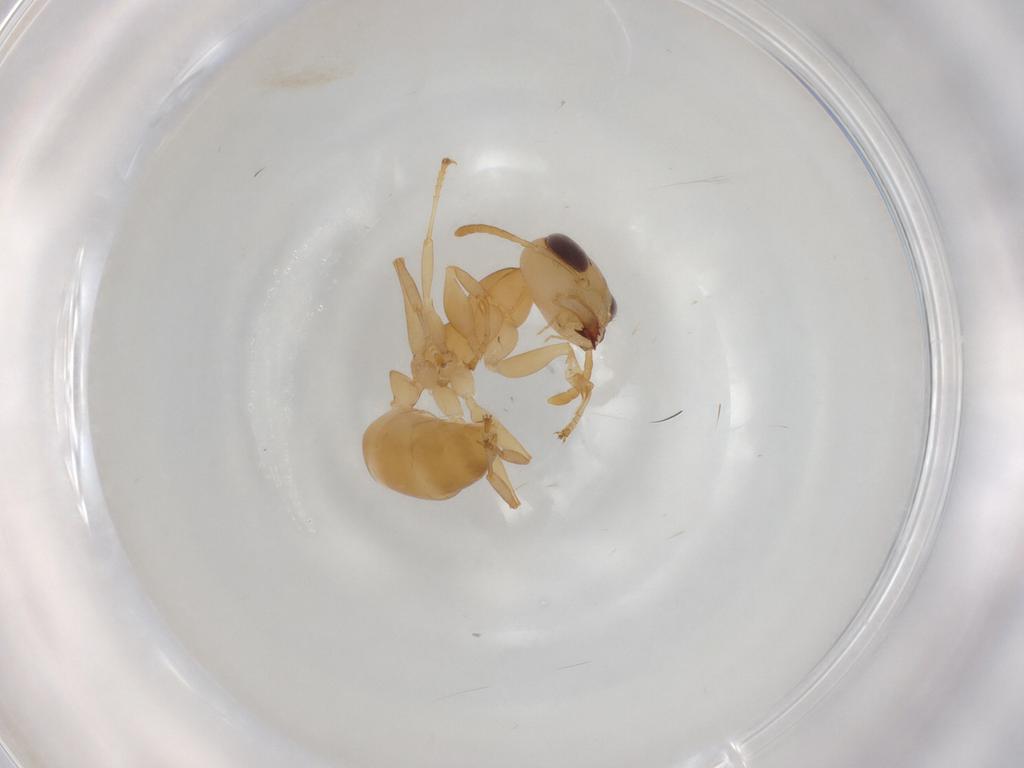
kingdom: Animalia
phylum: Arthropoda
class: Insecta
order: Hymenoptera
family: Formicidae
